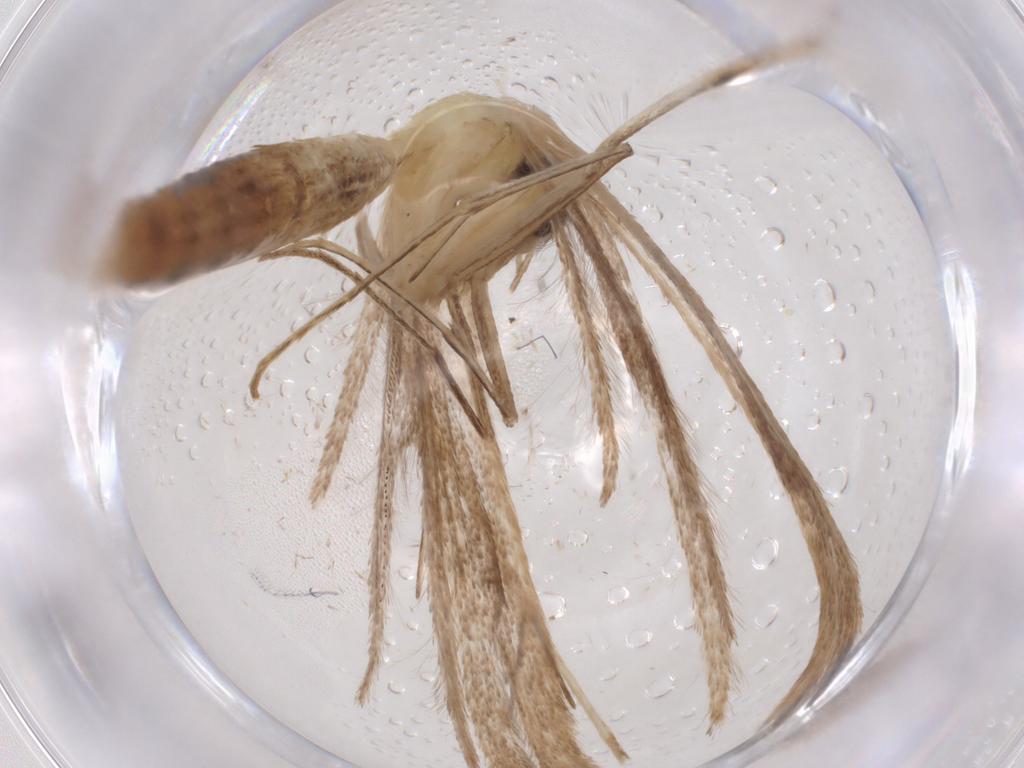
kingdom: Animalia
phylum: Arthropoda
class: Insecta
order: Lepidoptera
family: Elachistidae
